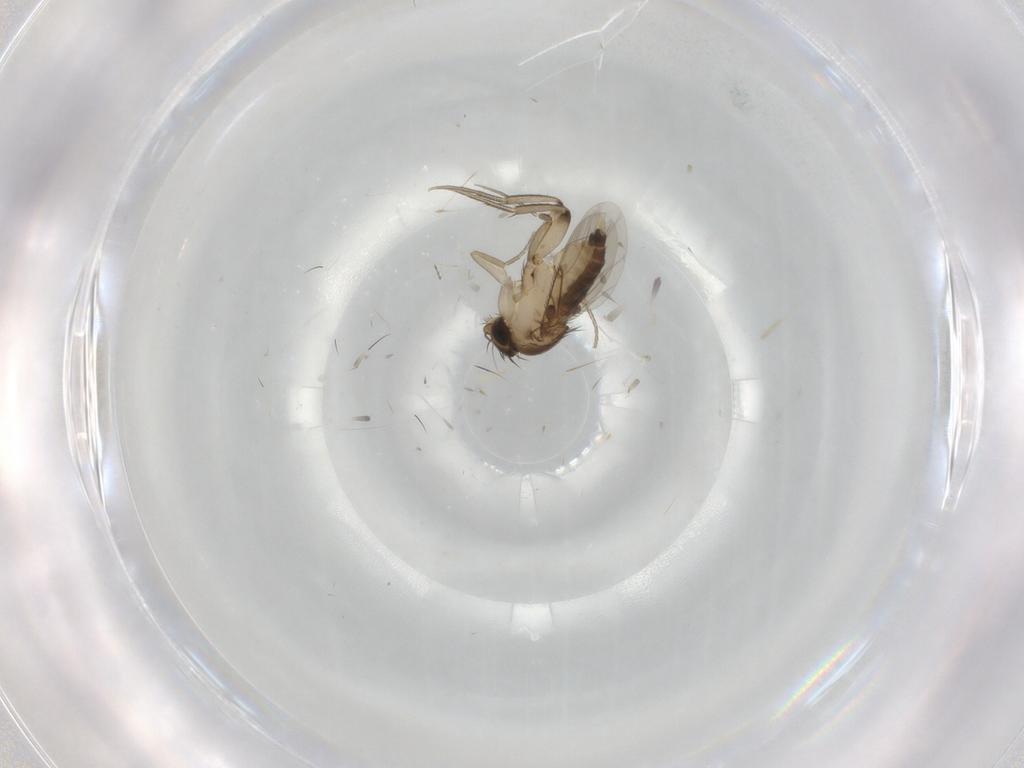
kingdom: Animalia
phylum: Arthropoda
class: Insecta
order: Diptera
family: Chironomidae
